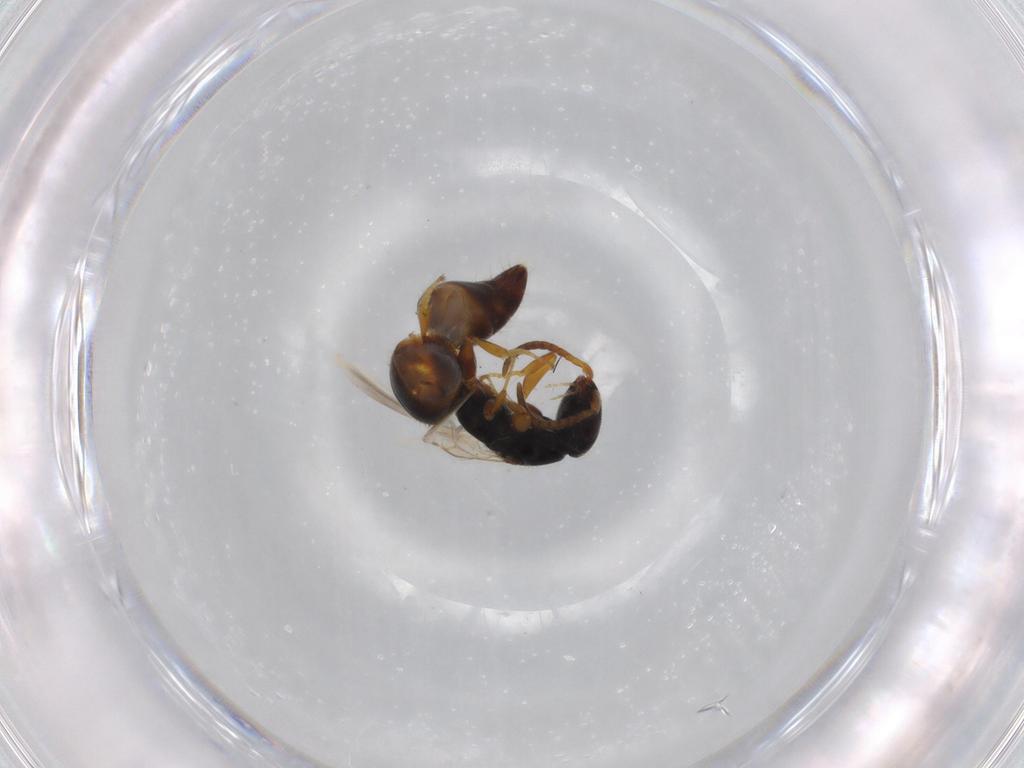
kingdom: Animalia
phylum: Arthropoda
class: Insecta
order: Hymenoptera
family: Bethylidae
